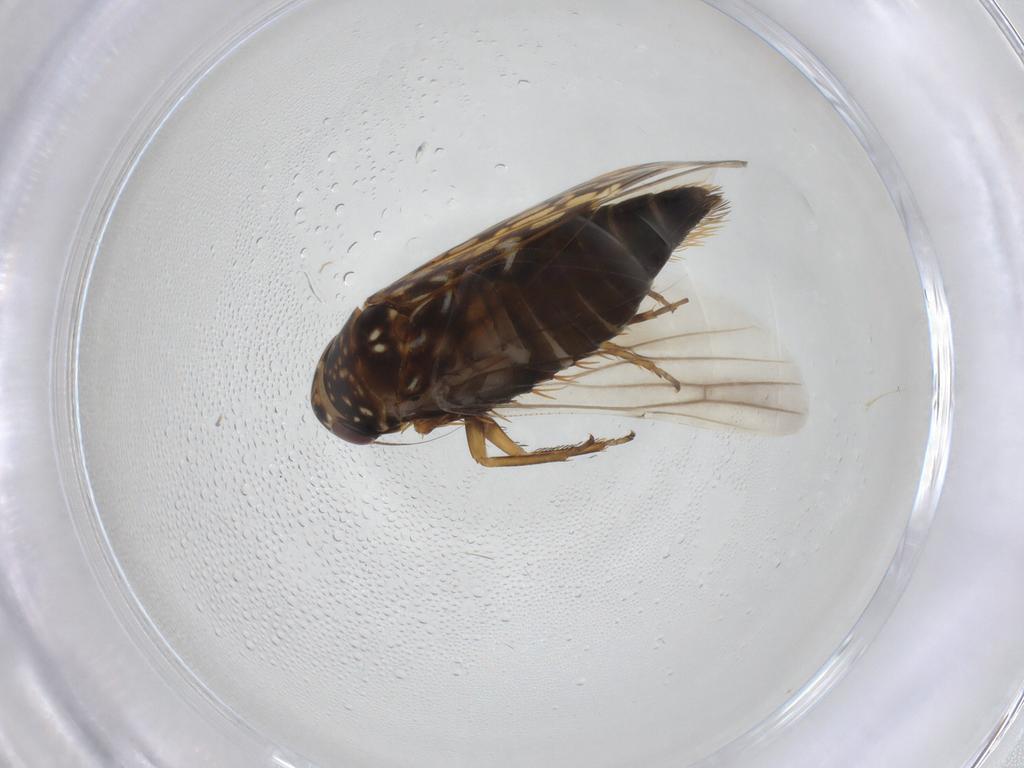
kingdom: Animalia
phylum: Arthropoda
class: Insecta
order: Hemiptera
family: Cicadellidae
